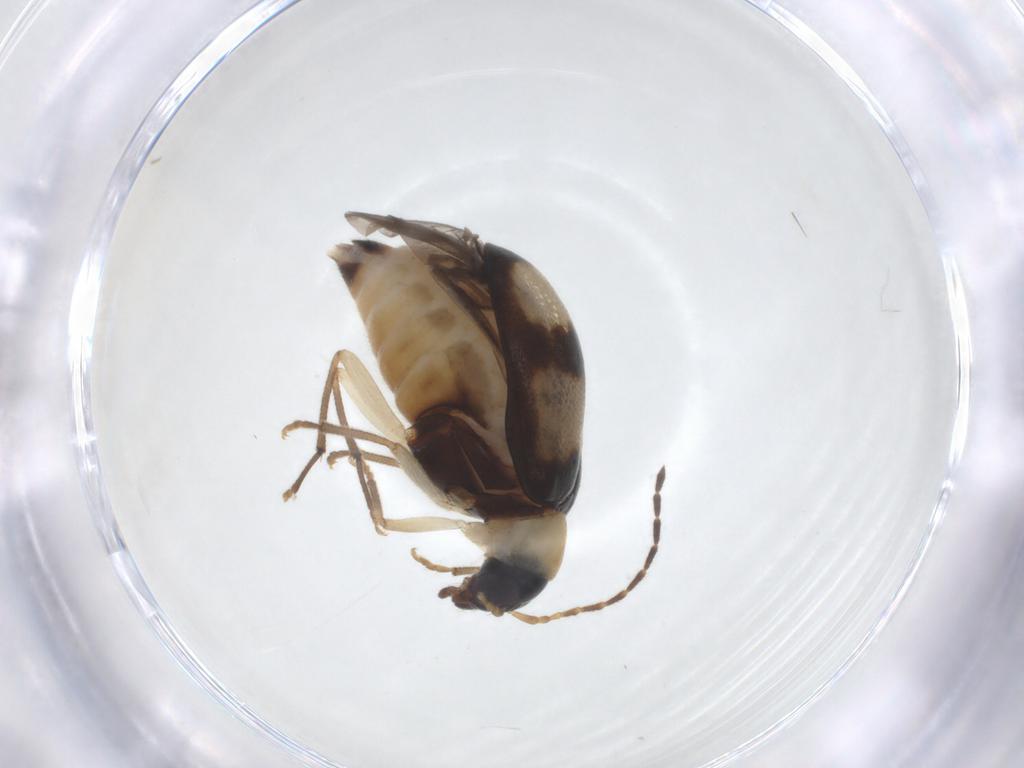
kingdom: Animalia
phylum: Arthropoda
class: Insecta
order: Coleoptera
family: Chrysomelidae
